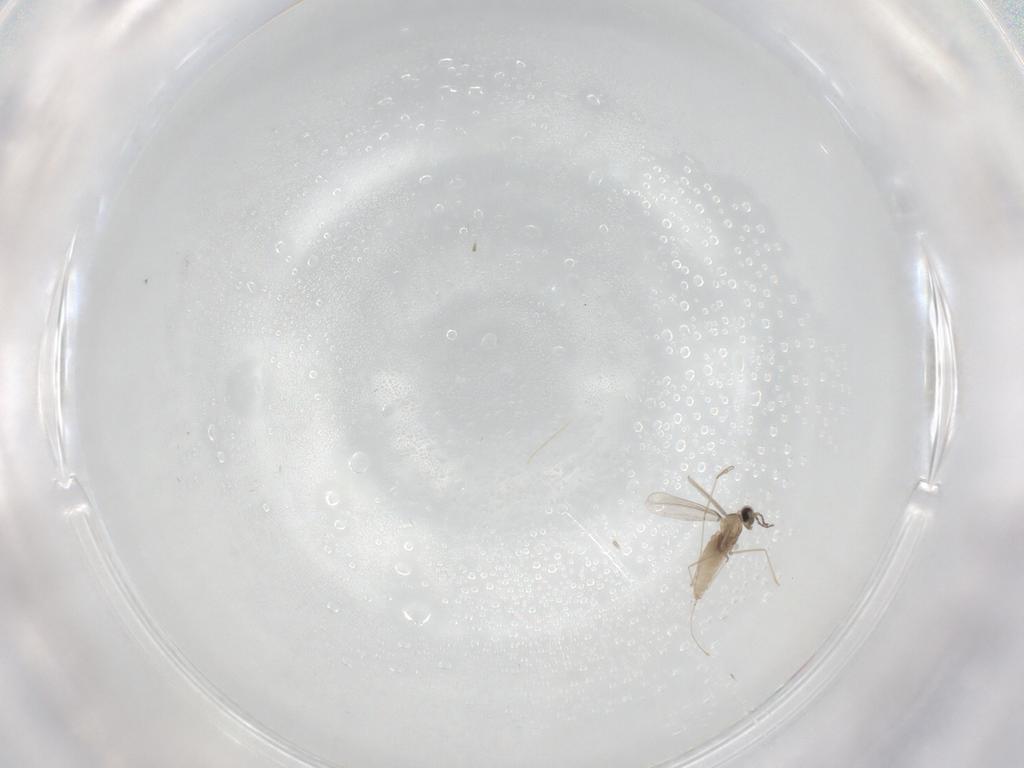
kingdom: Animalia
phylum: Arthropoda
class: Insecta
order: Diptera
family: Cecidomyiidae
